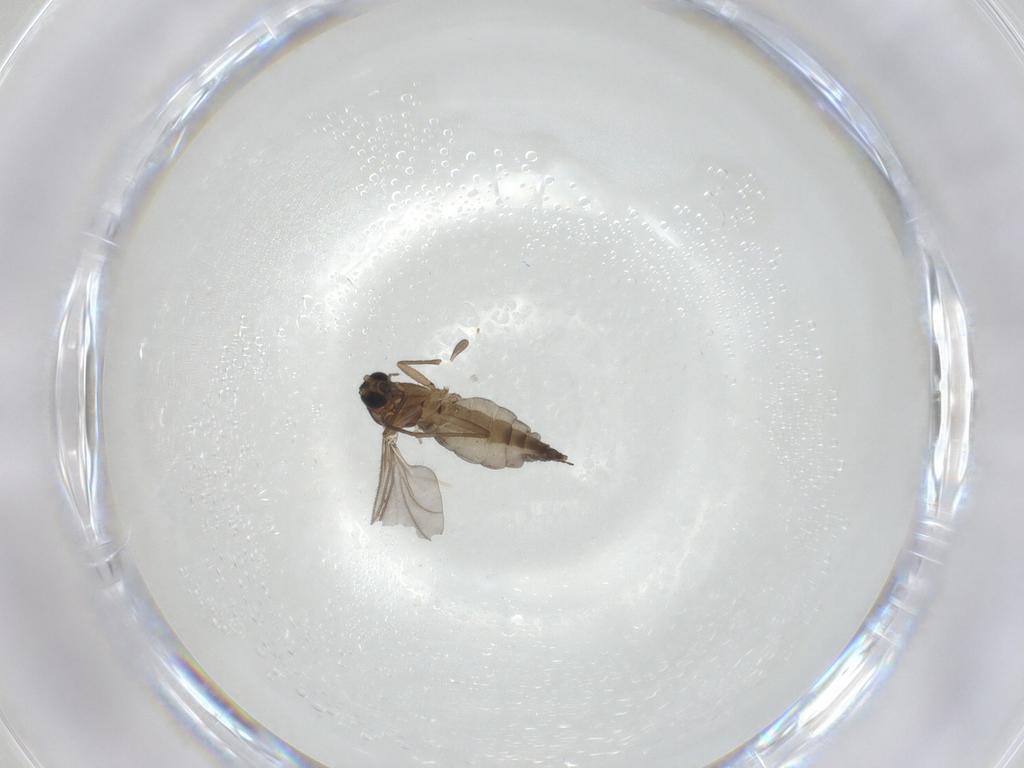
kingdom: Animalia
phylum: Arthropoda
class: Insecta
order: Diptera
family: Sciaridae
